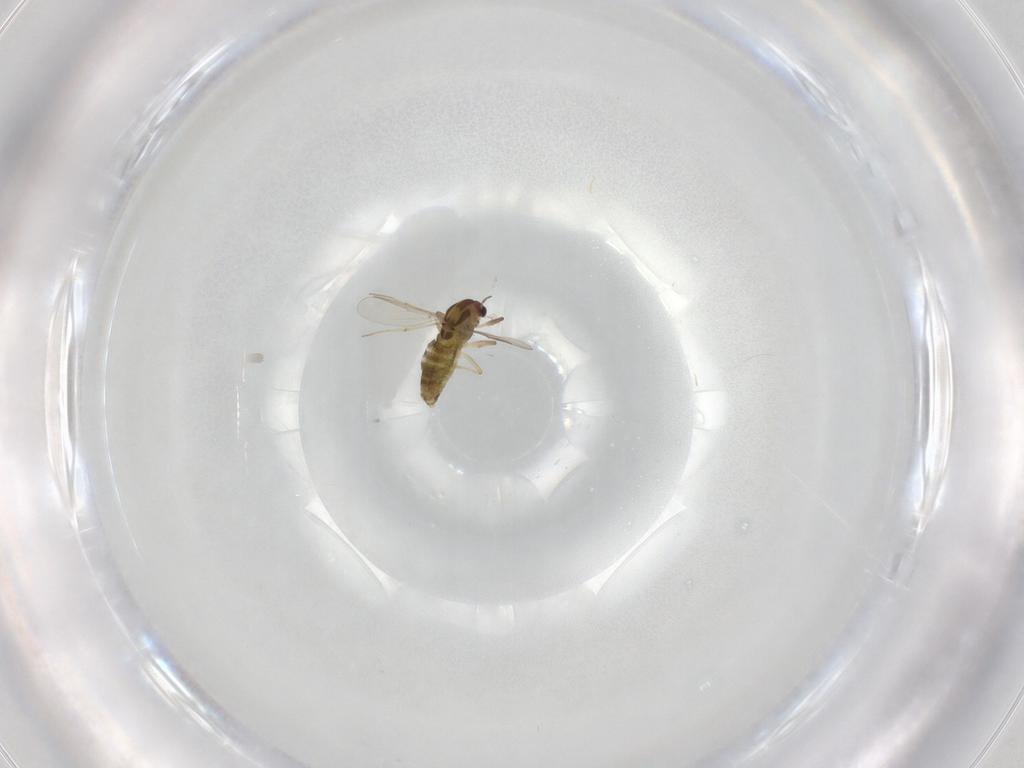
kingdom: Animalia
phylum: Arthropoda
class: Insecta
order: Diptera
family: Chironomidae
